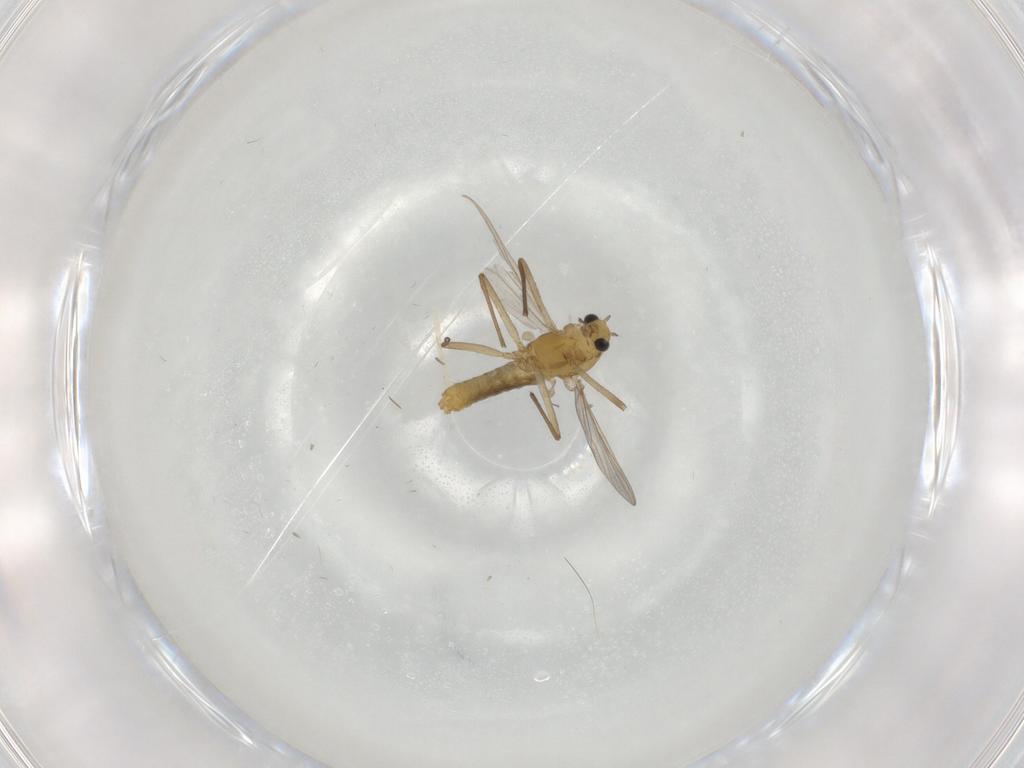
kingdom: Animalia
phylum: Arthropoda
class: Insecta
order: Diptera
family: Chironomidae
